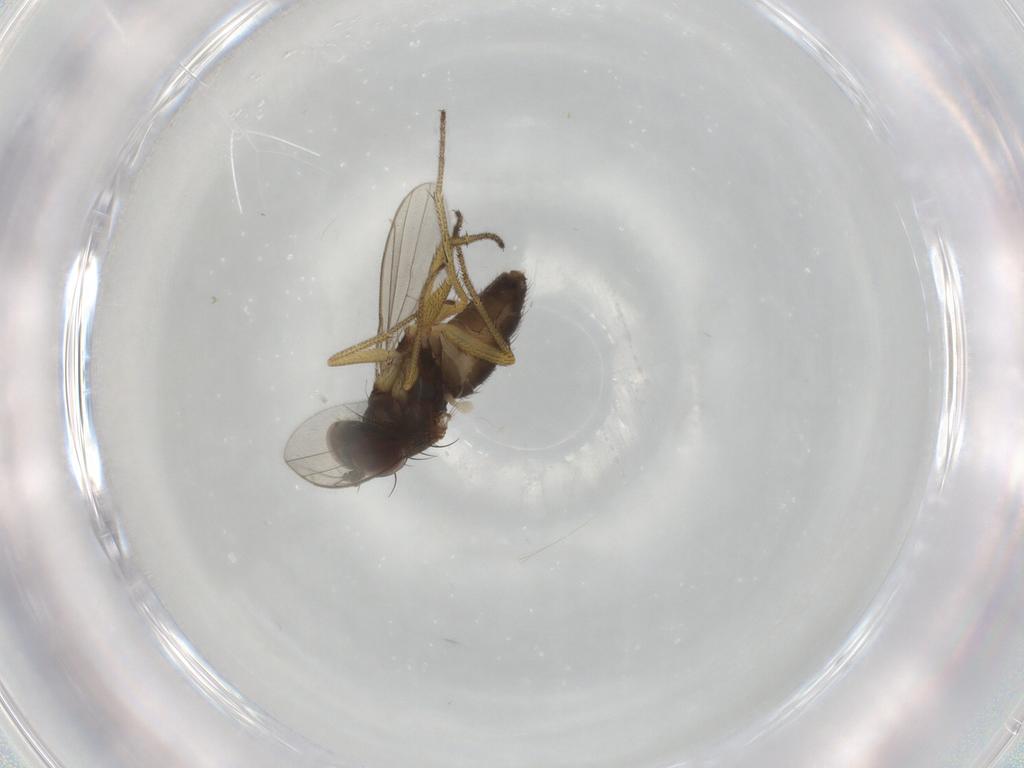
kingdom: Animalia
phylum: Arthropoda
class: Insecta
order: Diptera
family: Dolichopodidae
